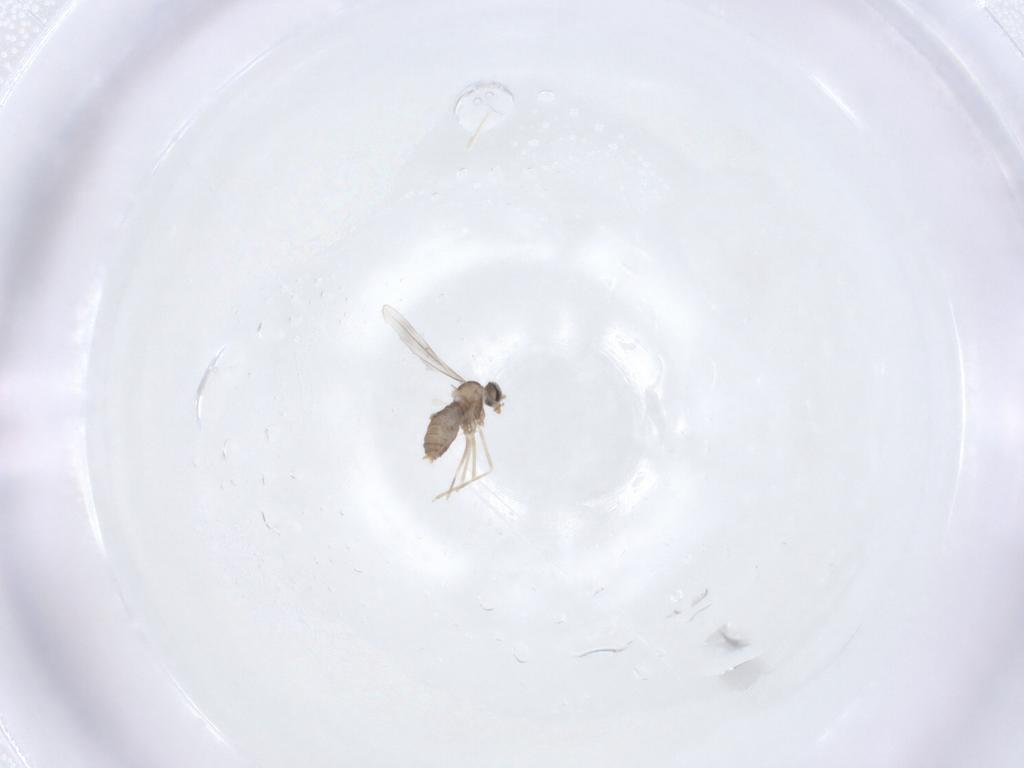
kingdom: Animalia
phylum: Arthropoda
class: Insecta
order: Diptera
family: Cecidomyiidae
